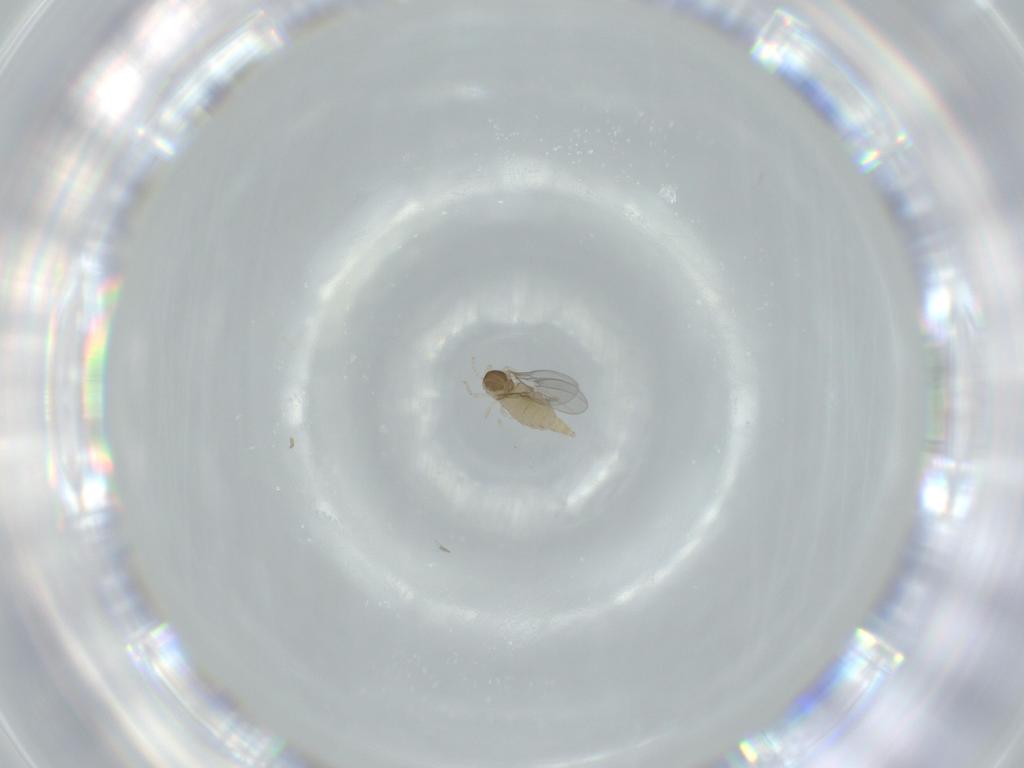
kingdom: Animalia
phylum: Arthropoda
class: Insecta
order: Diptera
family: Cecidomyiidae
